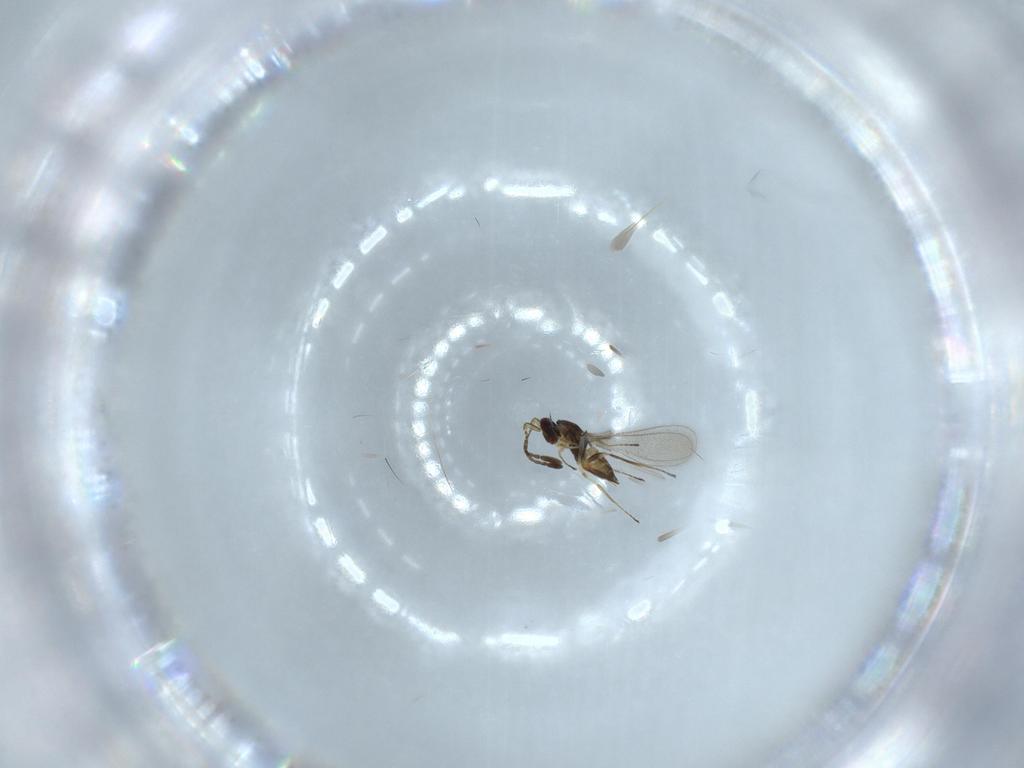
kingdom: Animalia
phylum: Arthropoda
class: Insecta
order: Hymenoptera
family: Mymaridae
